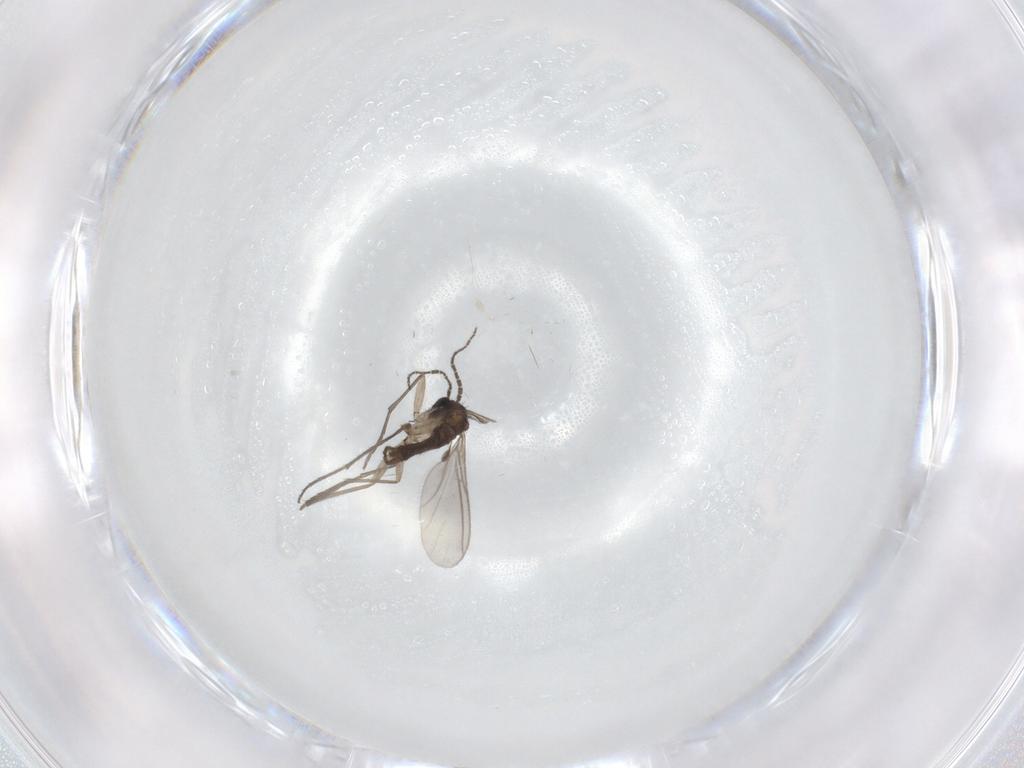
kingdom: Animalia
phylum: Arthropoda
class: Insecta
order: Diptera
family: Sciaridae
